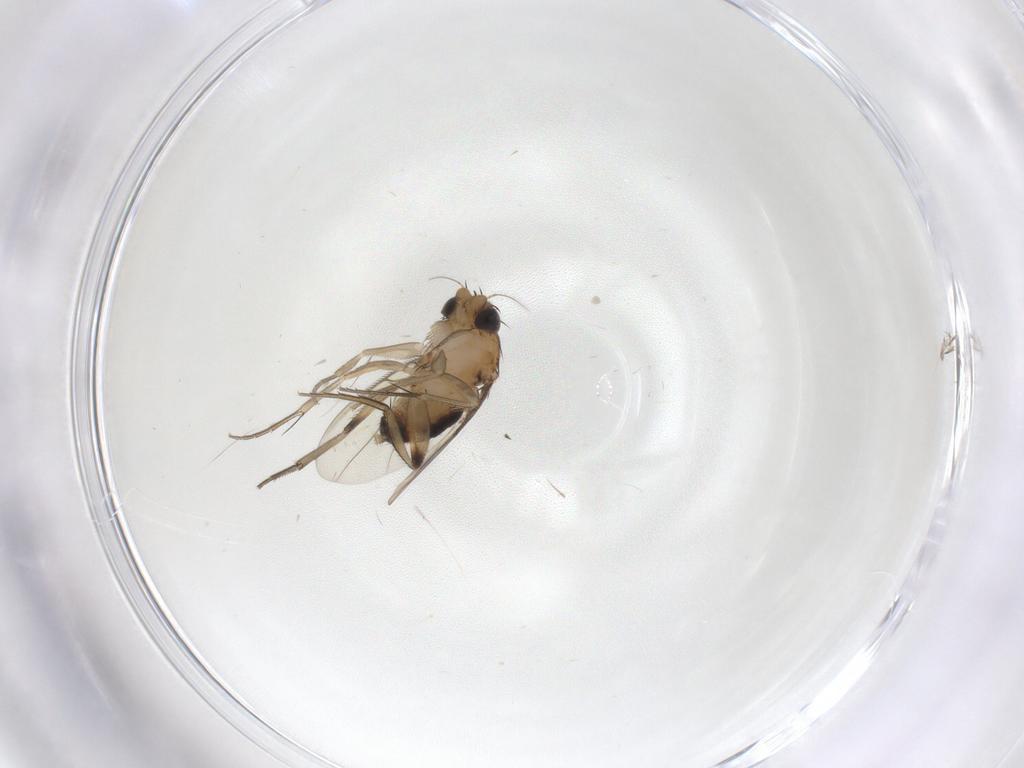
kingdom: Animalia
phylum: Arthropoda
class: Insecta
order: Diptera
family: Phoridae
